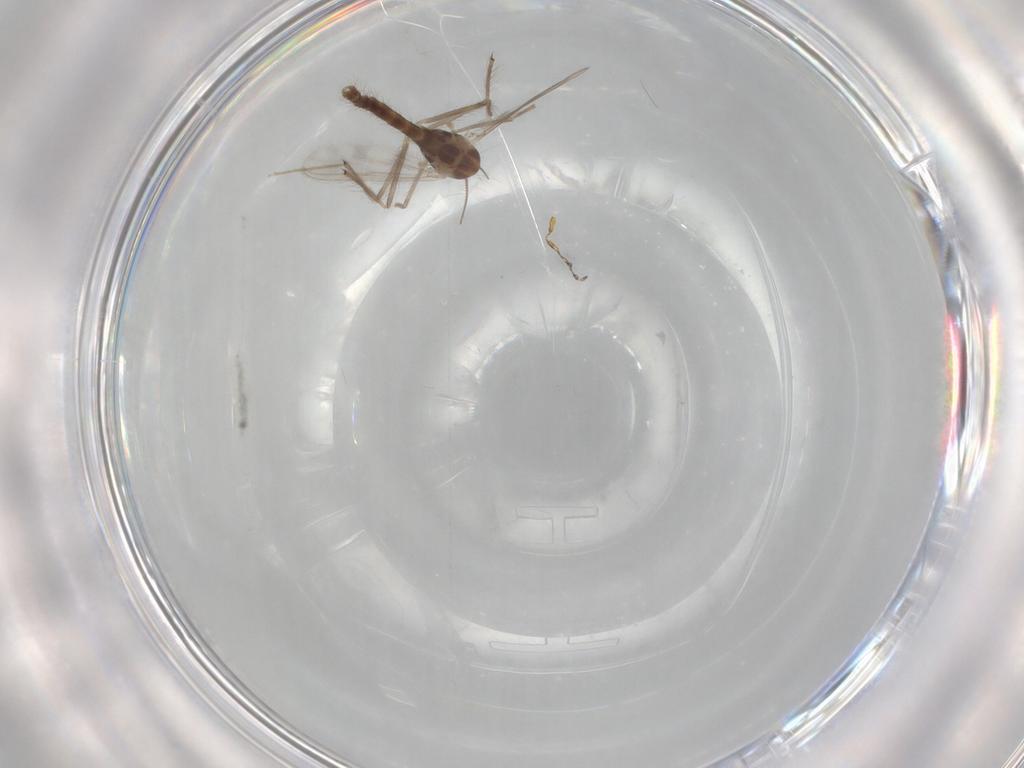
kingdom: Animalia
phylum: Arthropoda
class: Insecta
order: Diptera
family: Chironomidae
